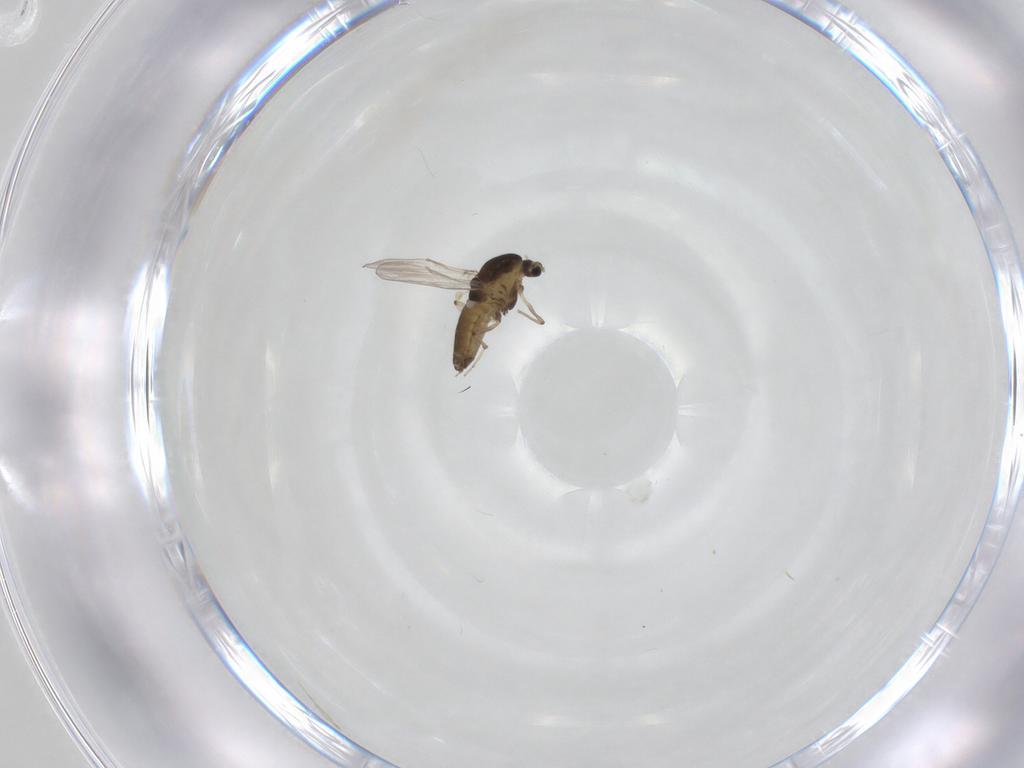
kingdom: Animalia
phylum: Arthropoda
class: Insecta
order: Diptera
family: Chironomidae
